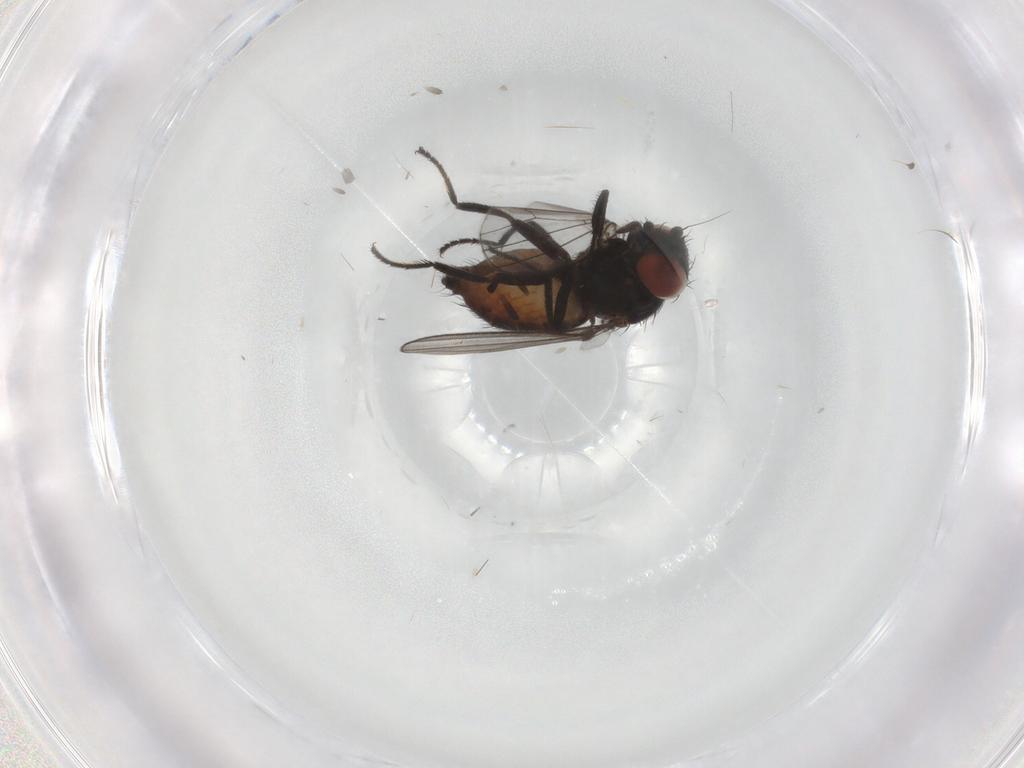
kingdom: Animalia
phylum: Arthropoda
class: Insecta
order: Diptera
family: Milichiidae
